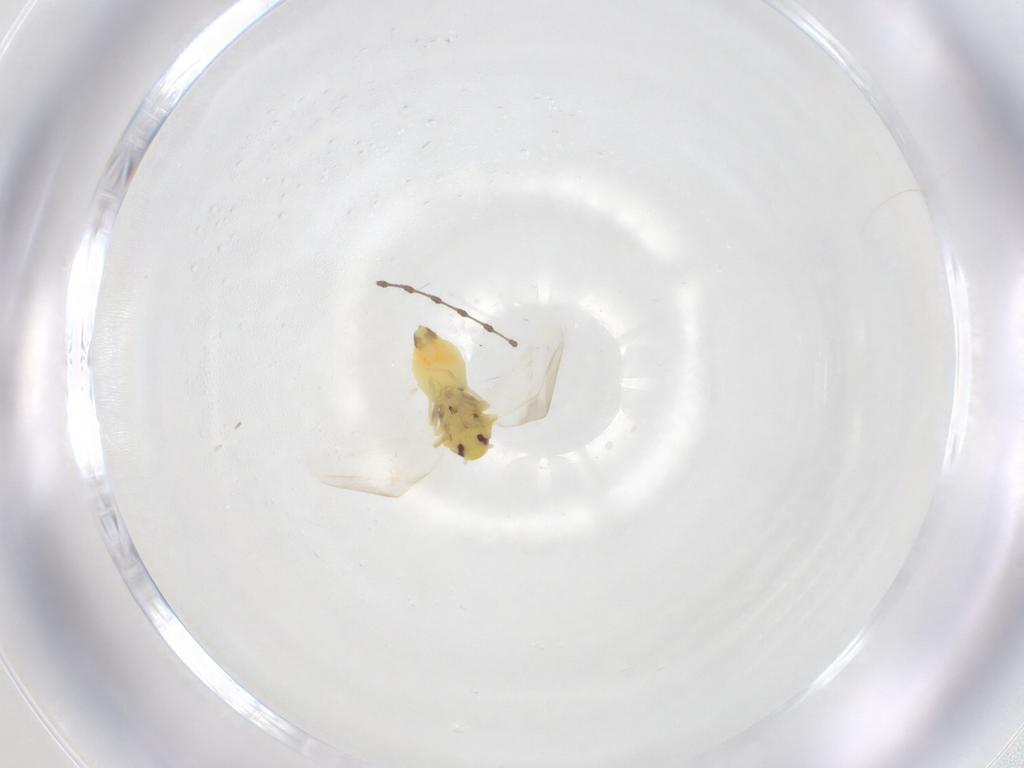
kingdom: Animalia
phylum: Arthropoda
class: Insecta
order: Hemiptera
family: Aleyrodidae
